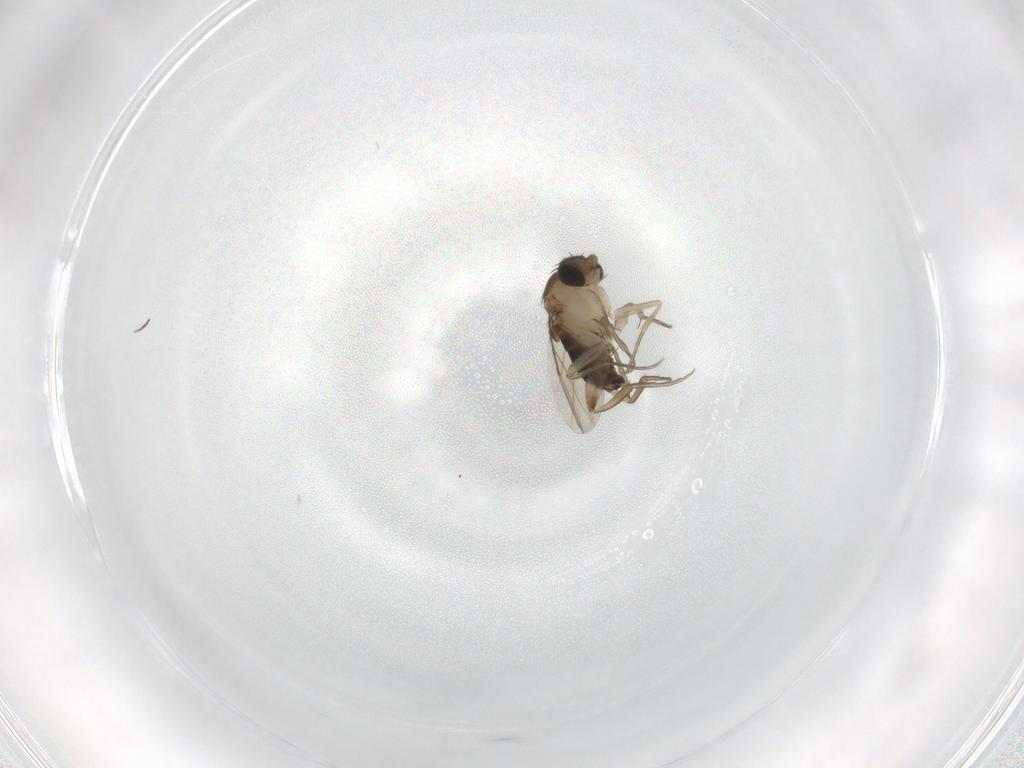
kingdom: Animalia
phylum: Arthropoda
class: Insecta
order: Diptera
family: Phoridae
